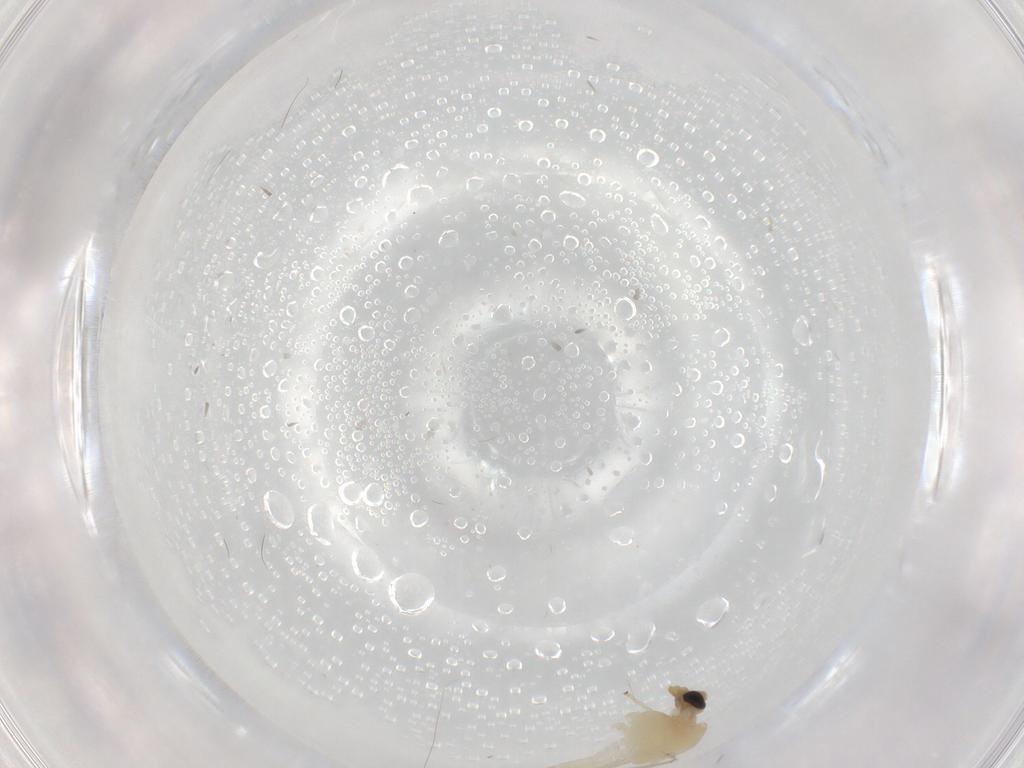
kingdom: Animalia
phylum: Arthropoda
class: Insecta
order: Diptera
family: Chironomidae
